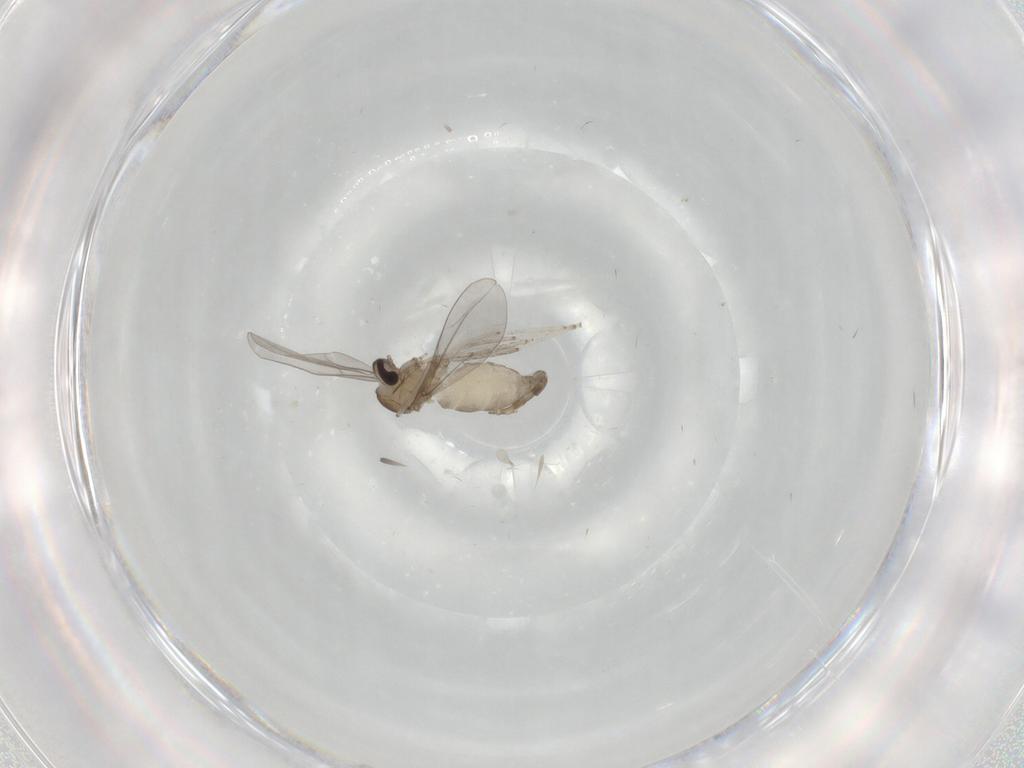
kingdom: Animalia
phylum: Arthropoda
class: Insecta
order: Diptera
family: Cecidomyiidae
